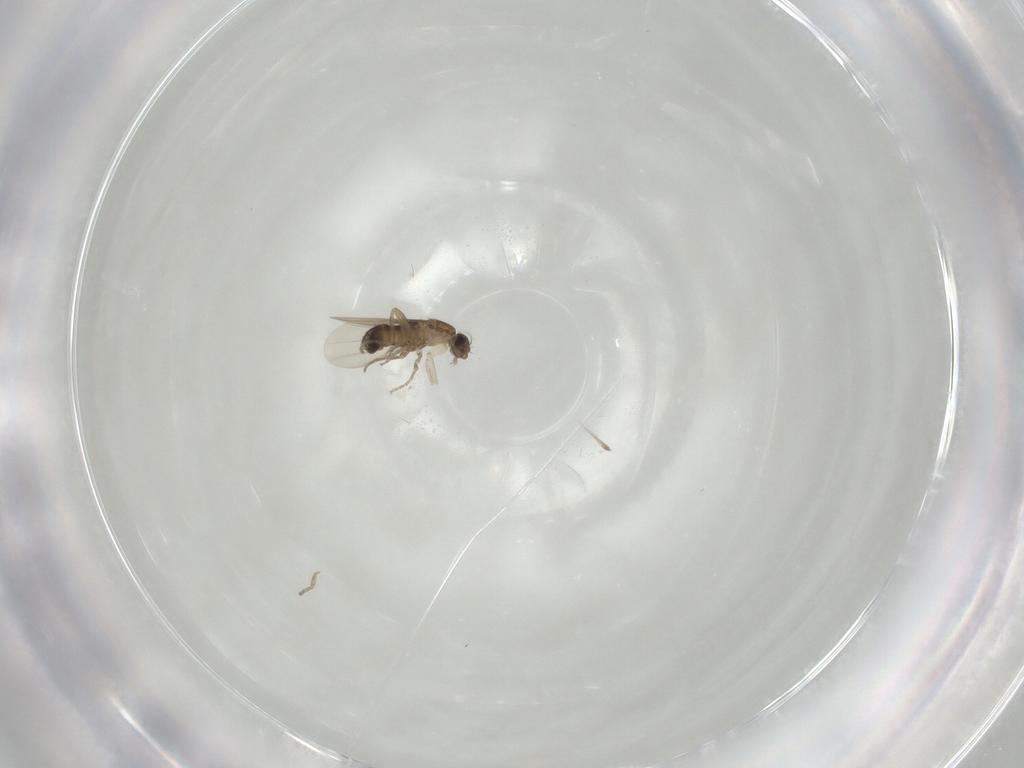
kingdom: Animalia
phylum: Arthropoda
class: Insecta
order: Diptera
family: Phoridae
